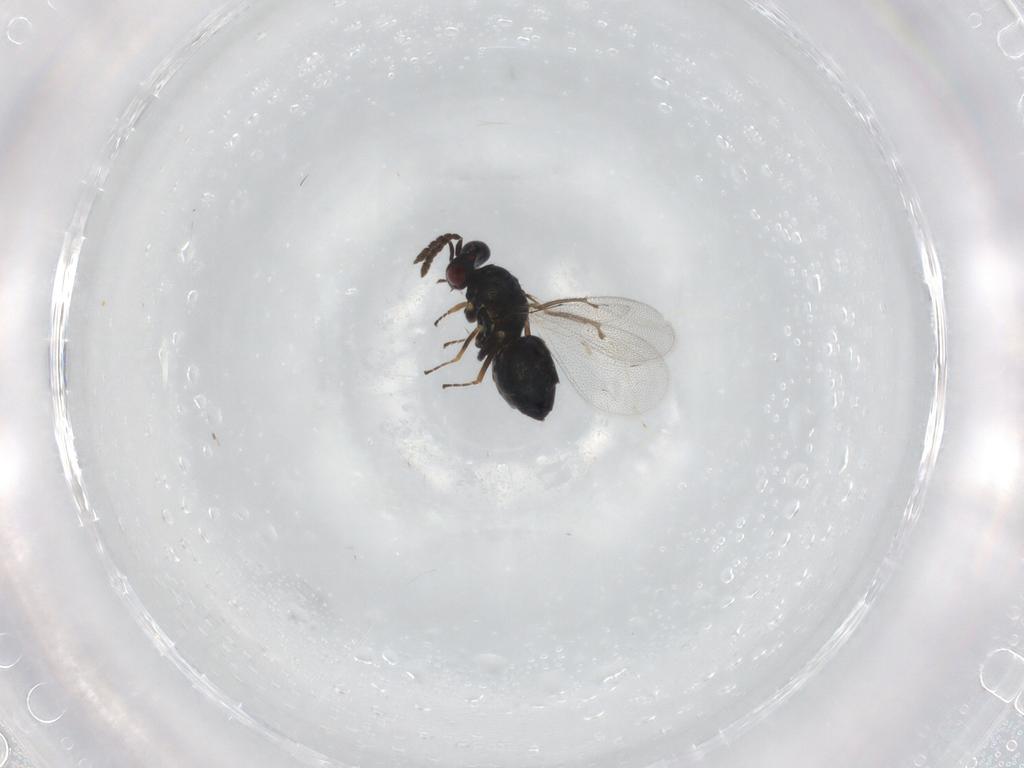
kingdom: Animalia
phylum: Arthropoda
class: Insecta
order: Hymenoptera
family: Eulophidae
